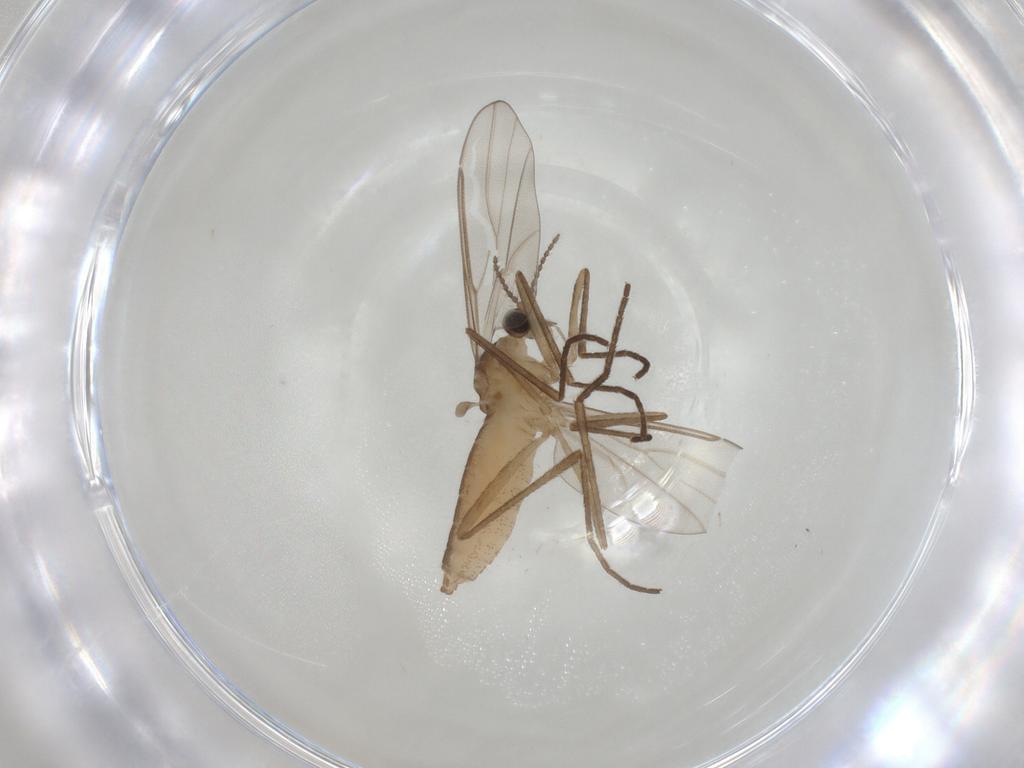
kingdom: Animalia
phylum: Arthropoda
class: Insecta
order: Diptera
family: Cecidomyiidae
